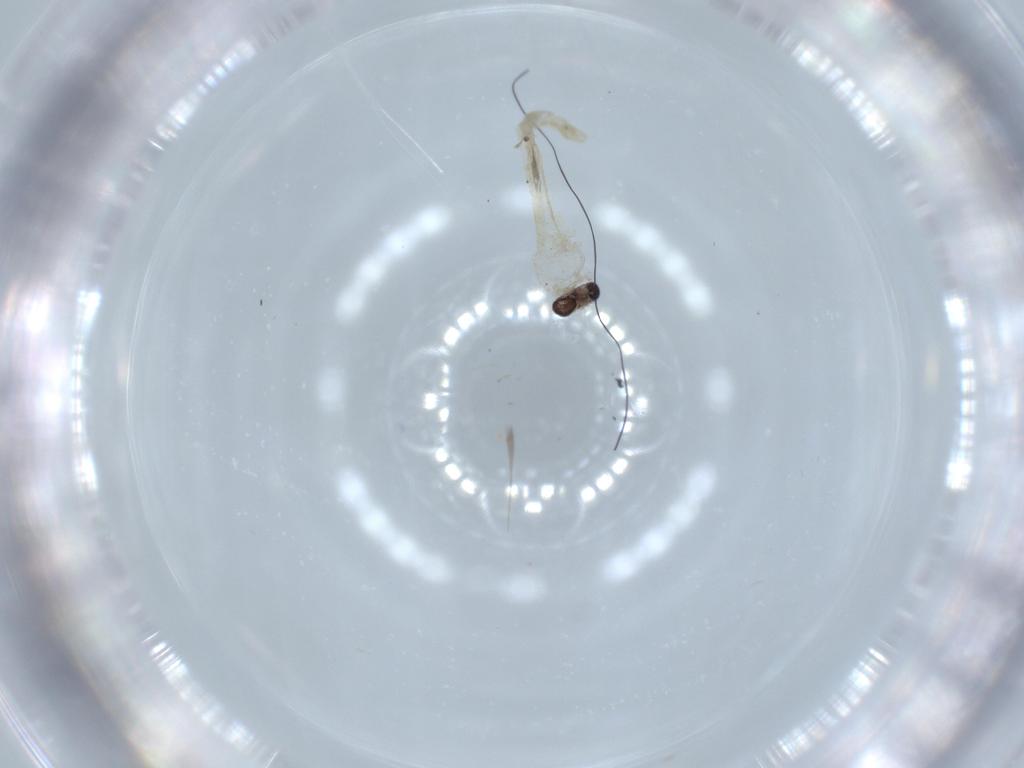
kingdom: Animalia
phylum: Arthropoda
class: Insecta
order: Diptera
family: Chironomidae
